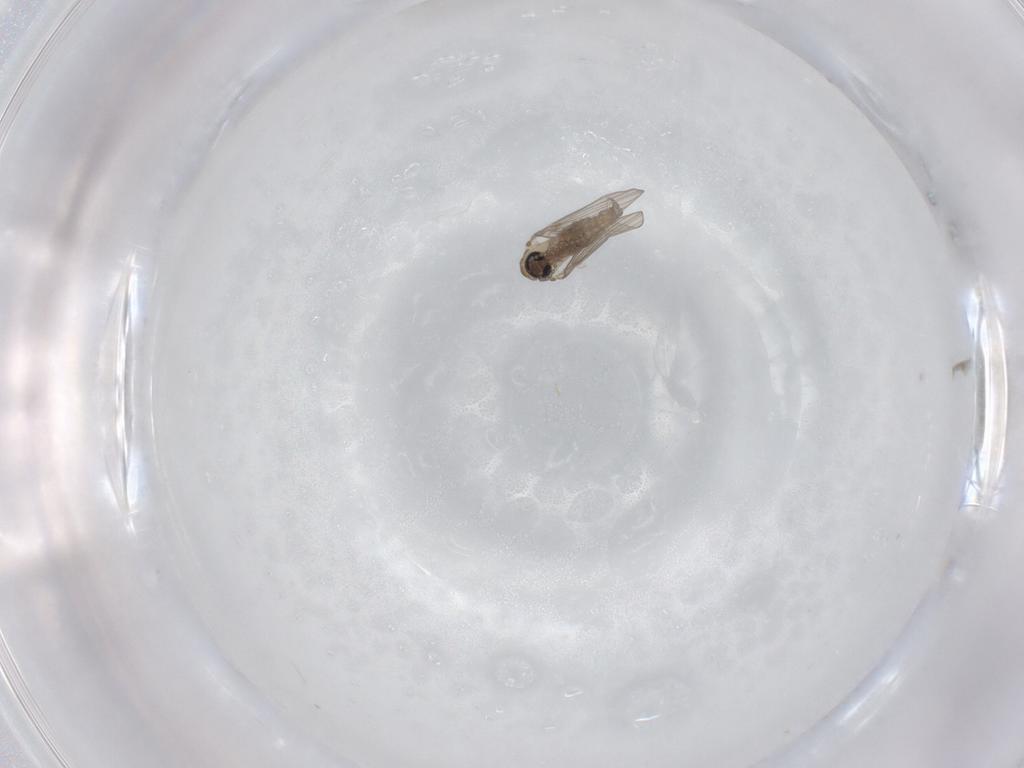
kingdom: Animalia
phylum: Arthropoda
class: Insecta
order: Diptera
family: Psychodidae
